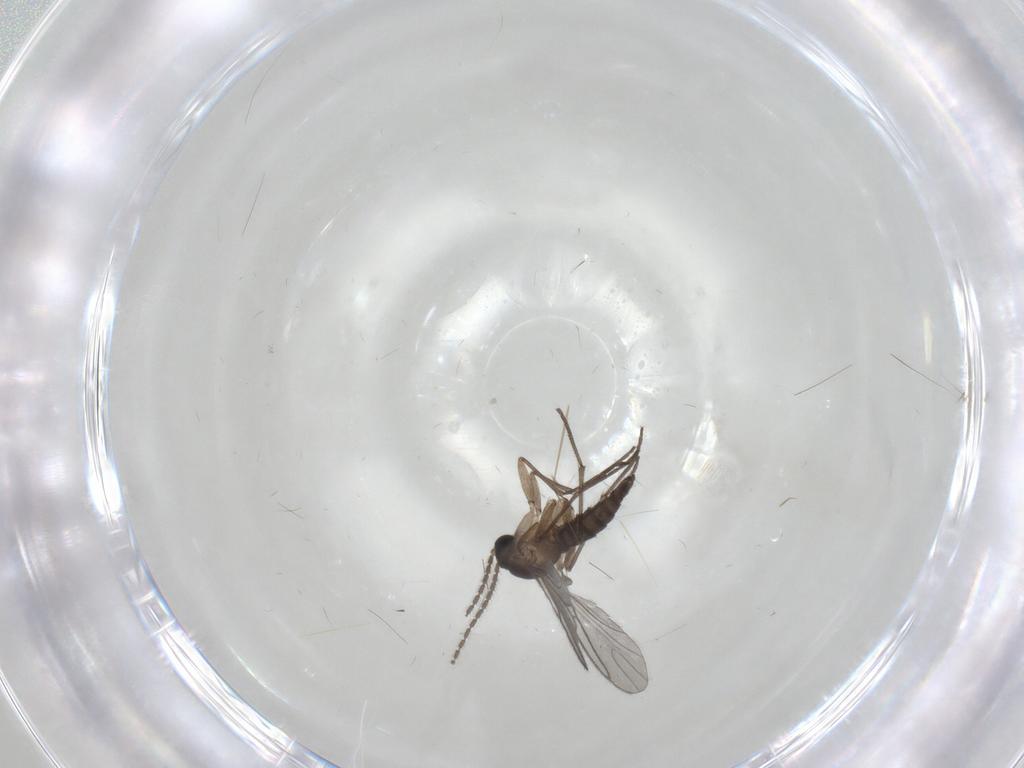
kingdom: Animalia
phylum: Arthropoda
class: Insecta
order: Diptera
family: Sciaridae
